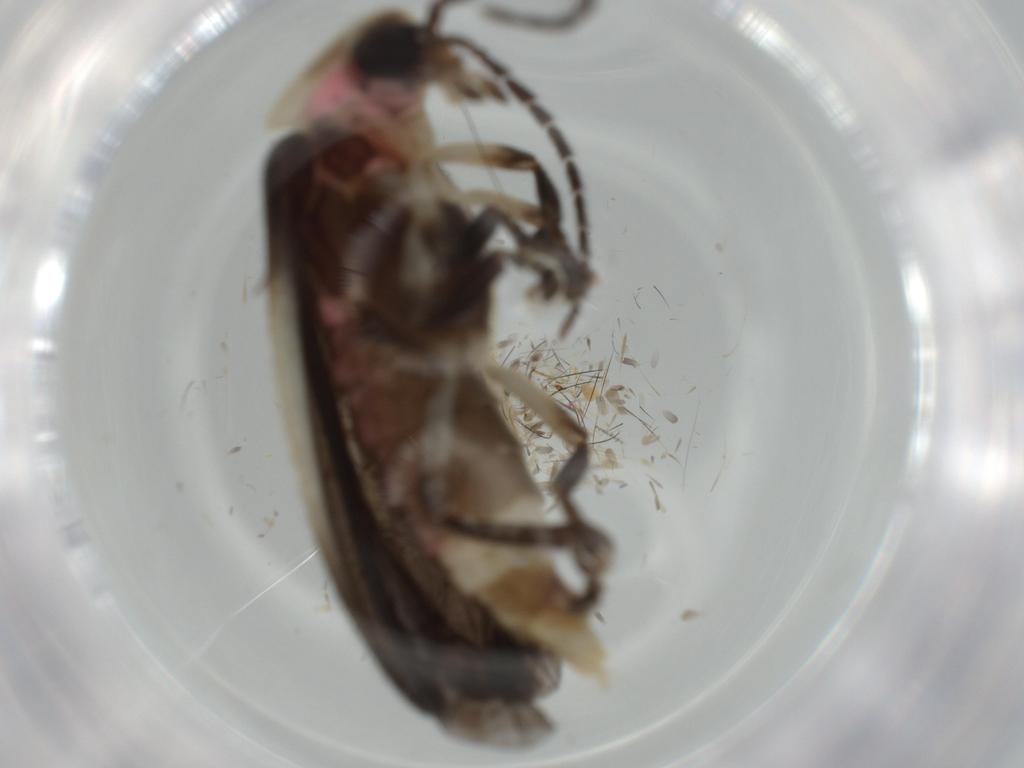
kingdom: Animalia
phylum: Arthropoda
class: Insecta
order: Coleoptera
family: Lampyridae
